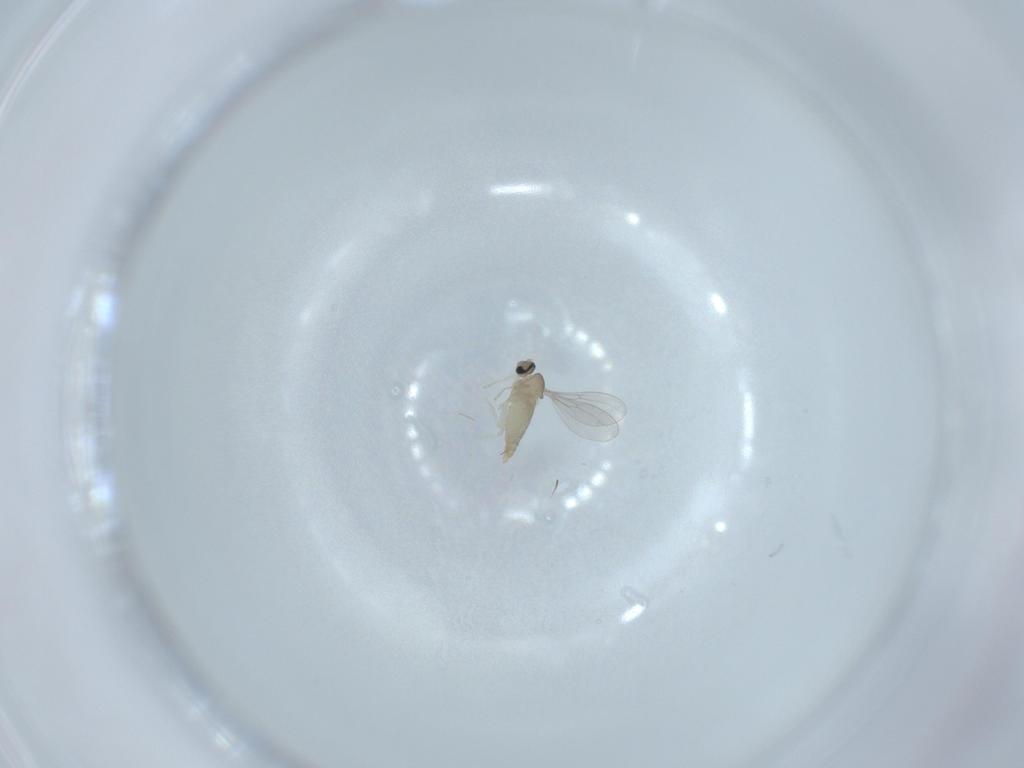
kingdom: Animalia
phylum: Arthropoda
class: Insecta
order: Diptera
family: Cecidomyiidae
